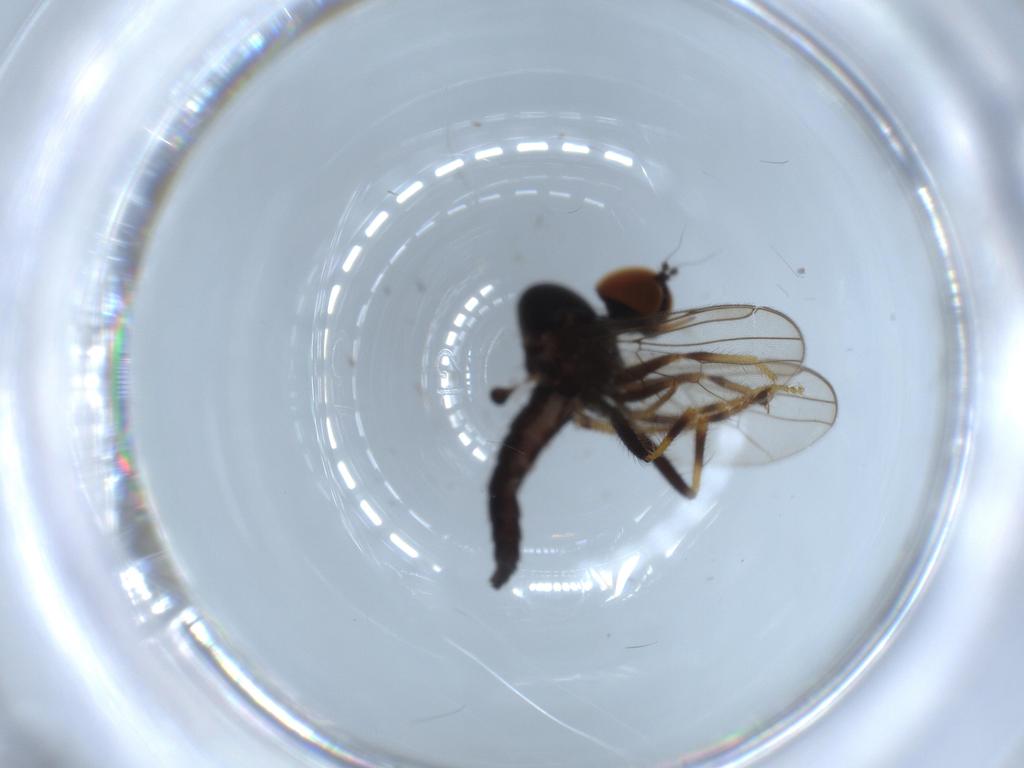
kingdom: Animalia
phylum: Arthropoda
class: Insecta
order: Diptera
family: Hybotidae
